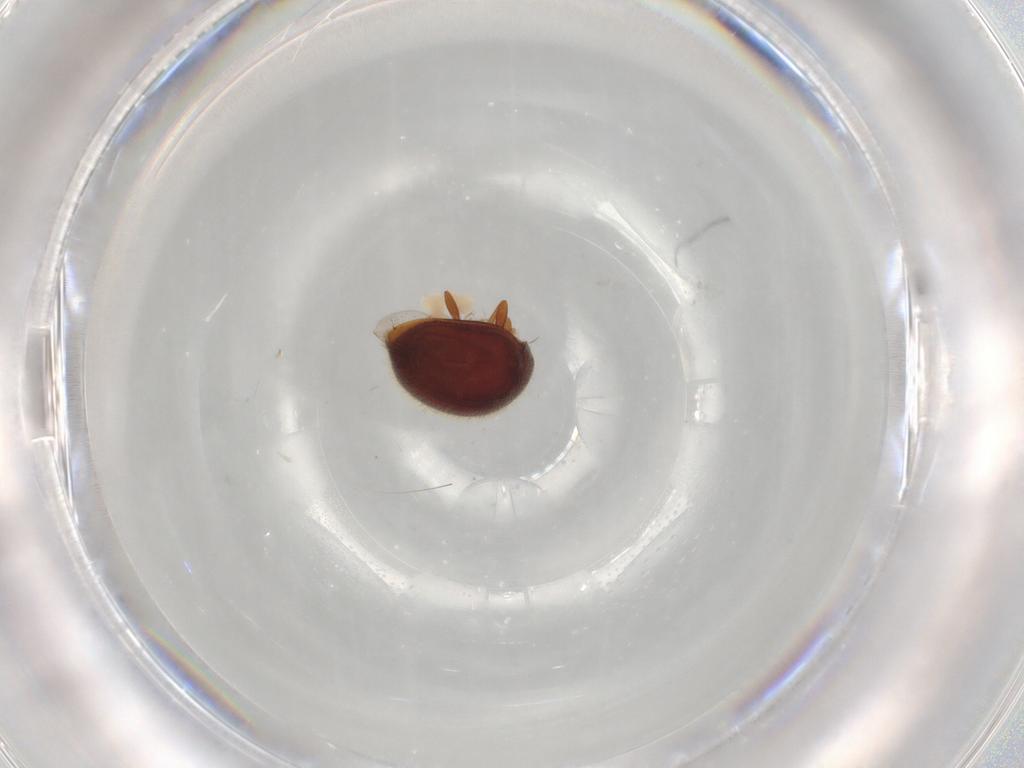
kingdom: Animalia
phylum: Arthropoda
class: Insecta
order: Coleoptera
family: Coccinellidae
